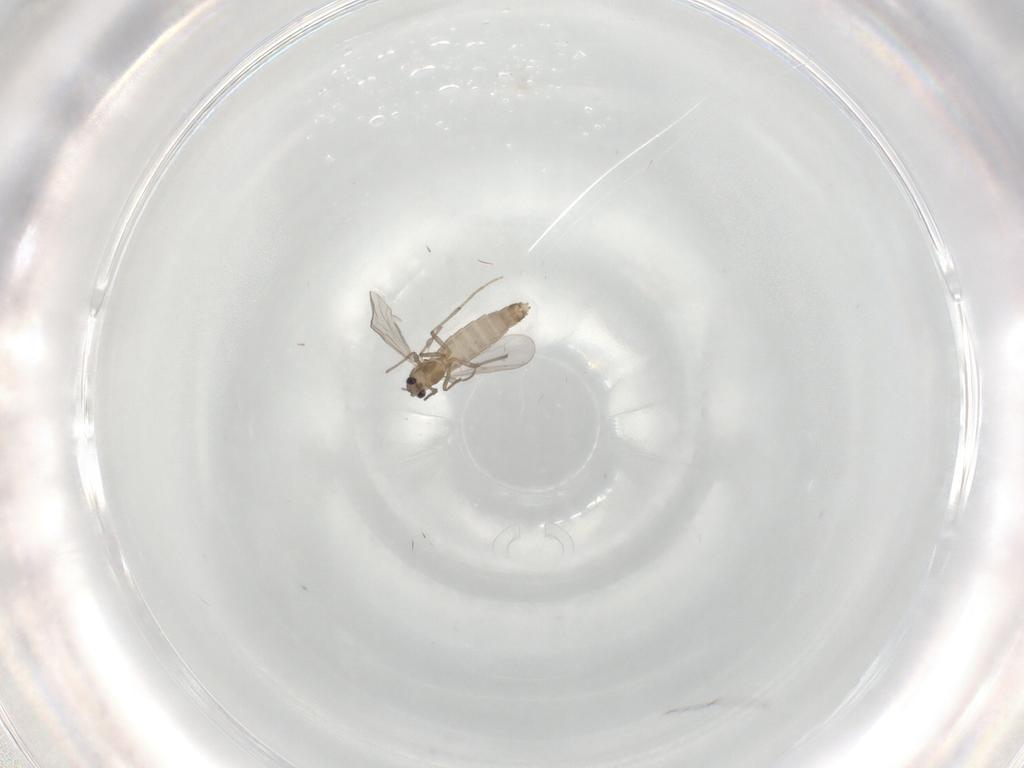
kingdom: Animalia
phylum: Arthropoda
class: Insecta
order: Diptera
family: Chironomidae
